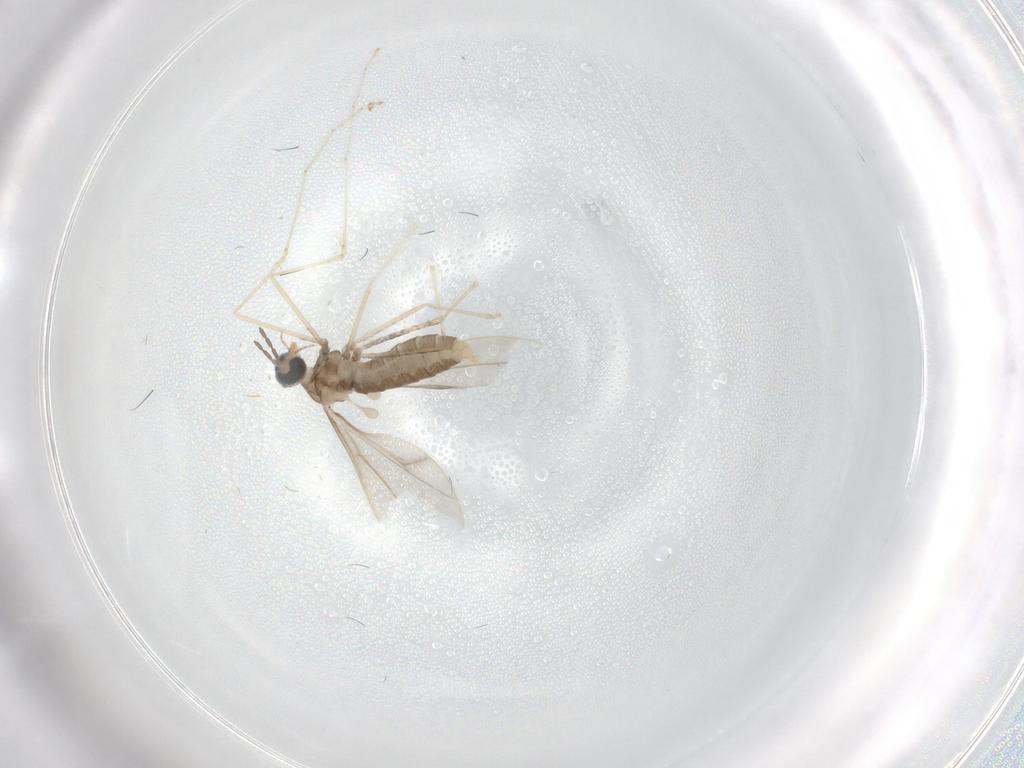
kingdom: Animalia
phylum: Arthropoda
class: Insecta
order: Diptera
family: Cecidomyiidae
